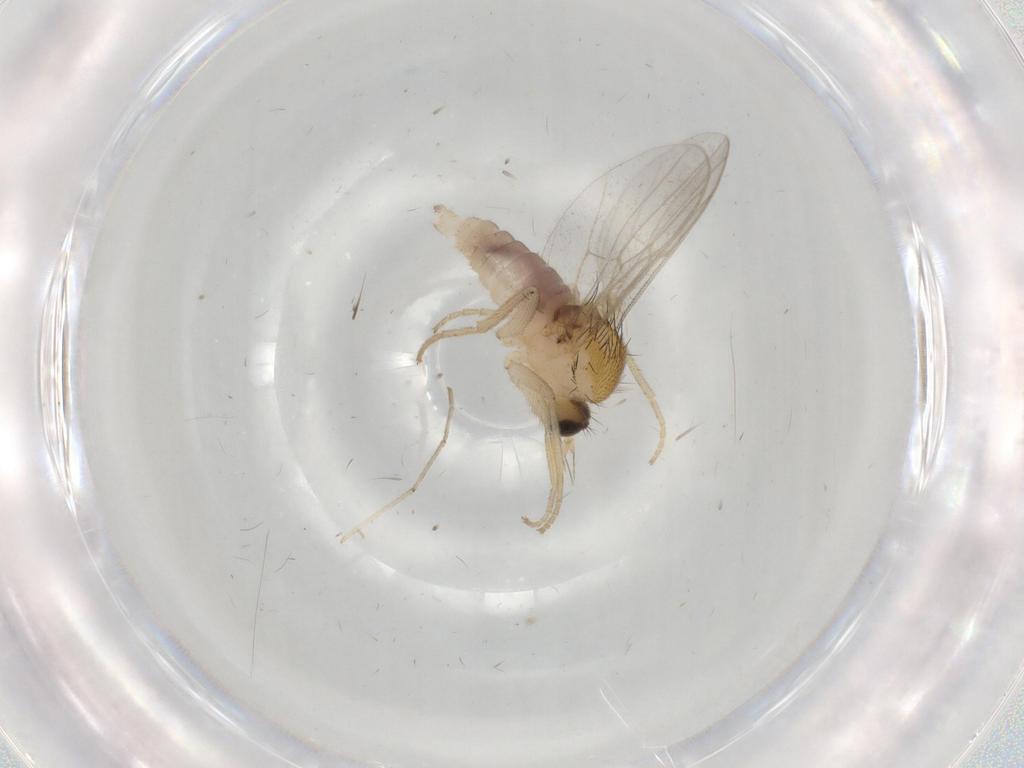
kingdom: Animalia
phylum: Arthropoda
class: Insecta
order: Diptera
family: Hybotidae
